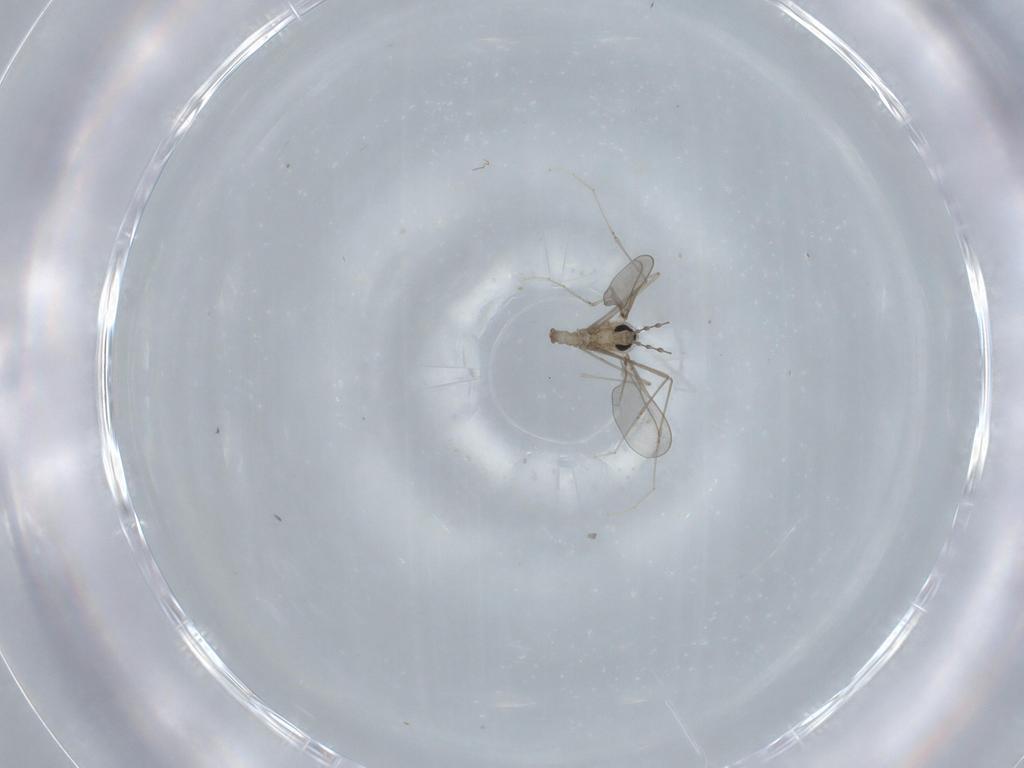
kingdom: Animalia
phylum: Arthropoda
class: Insecta
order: Diptera
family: Cecidomyiidae
